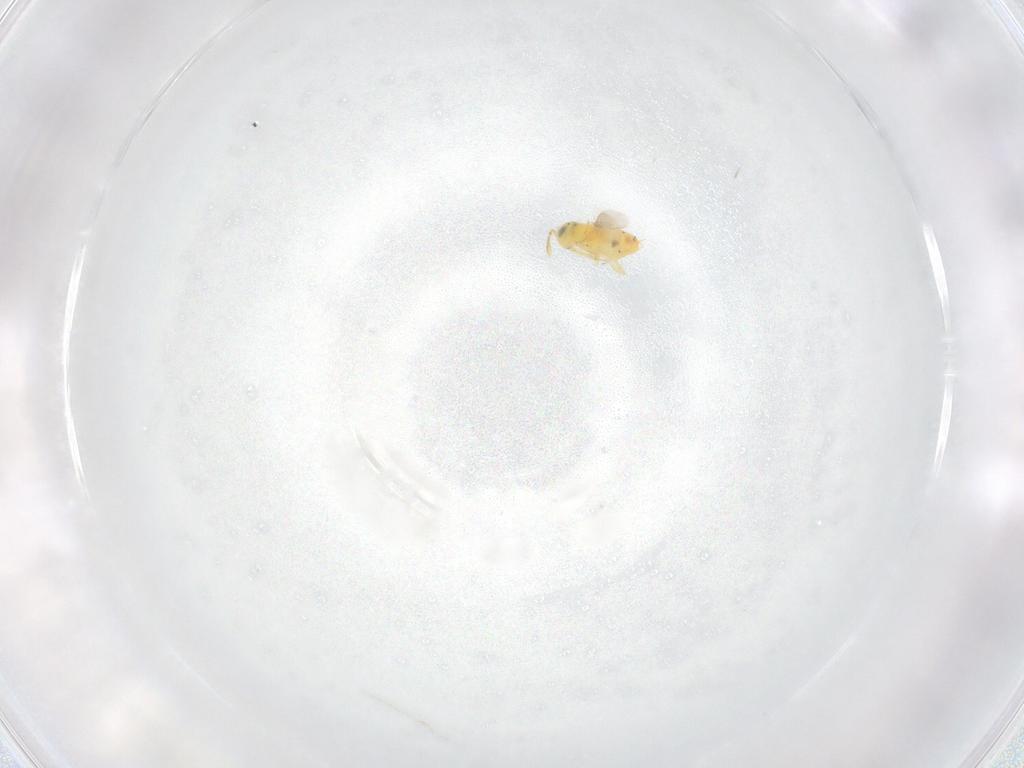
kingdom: Animalia
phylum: Arthropoda
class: Insecta
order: Hymenoptera
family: Encyrtidae
